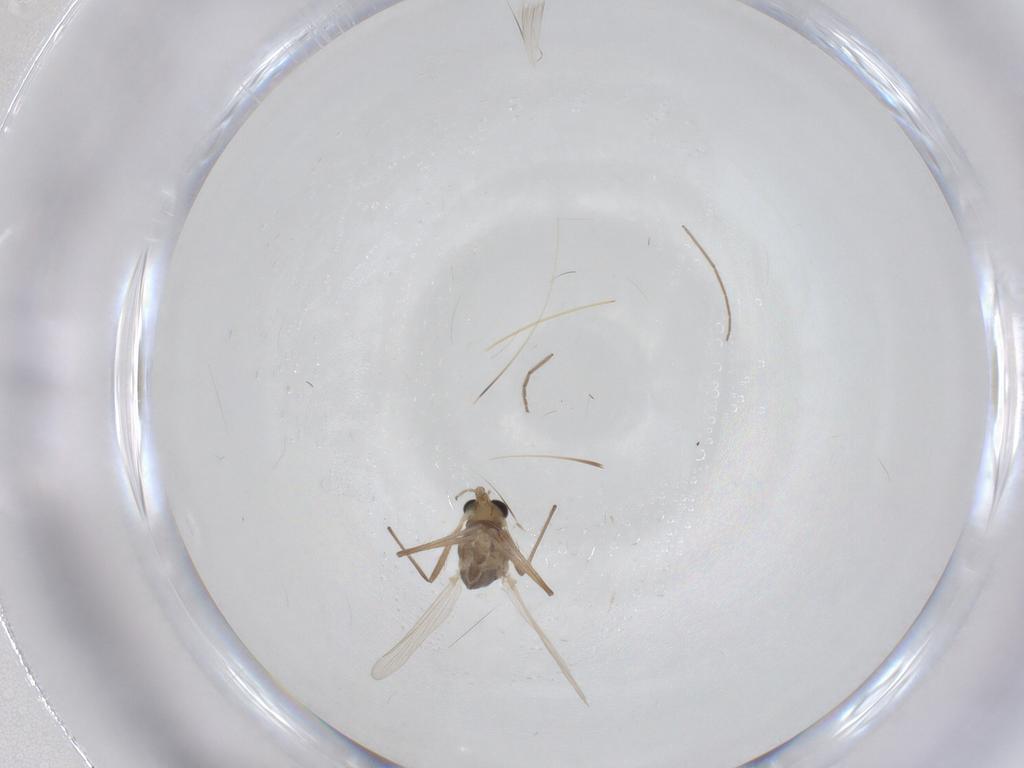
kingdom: Animalia
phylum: Arthropoda
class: Insecta
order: Diptera
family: Chironomidae
